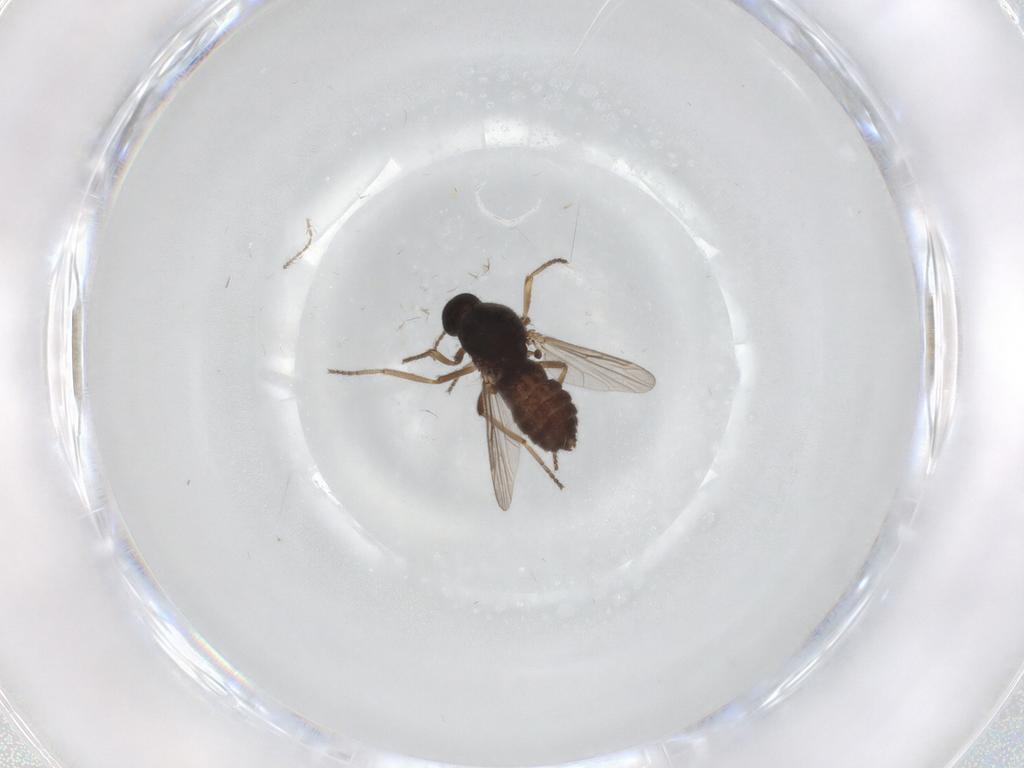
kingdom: Animalia
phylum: Arthropoda
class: Insecta
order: Diptera
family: Ceratopogonidae
